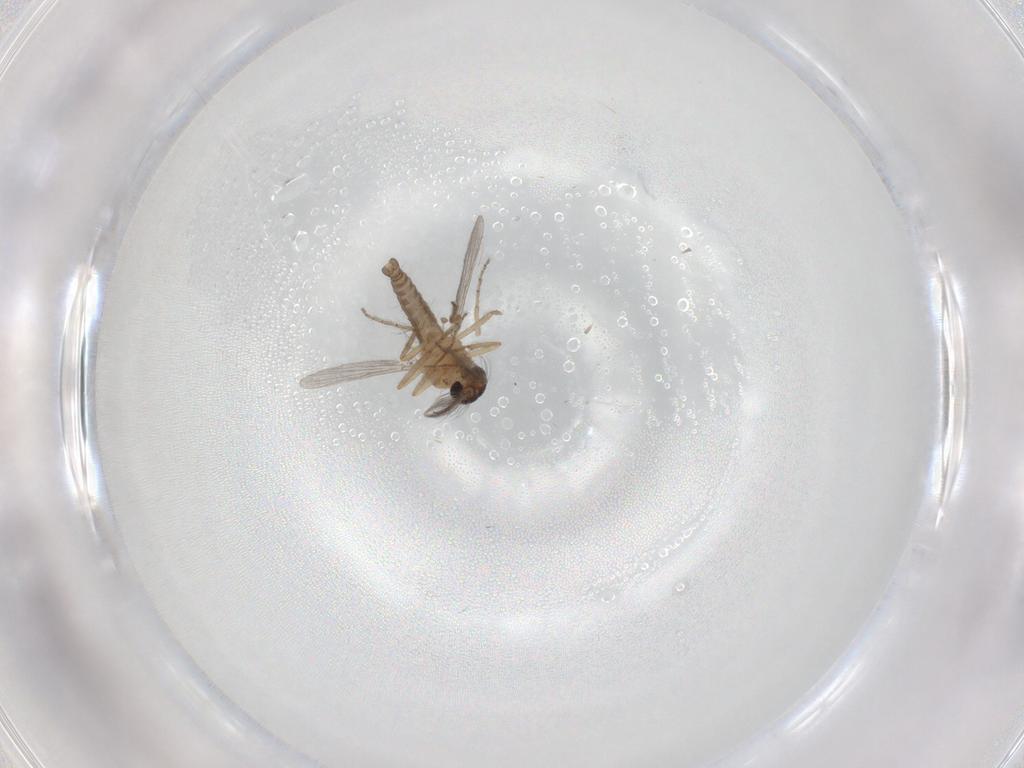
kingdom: Animalia
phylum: Arthropoda
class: Insecta
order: Diptera
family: Ceratopogonidae
